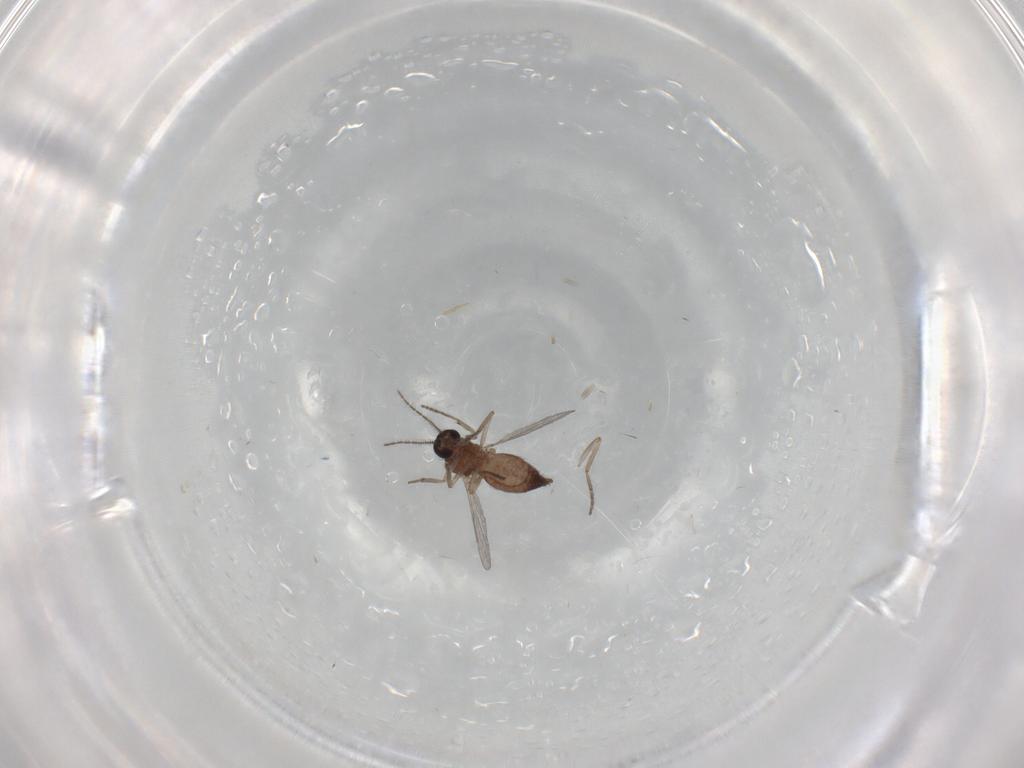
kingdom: Animalia
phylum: Arthropoda
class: Insecta
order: Diptera
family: Ceratopogonidae
